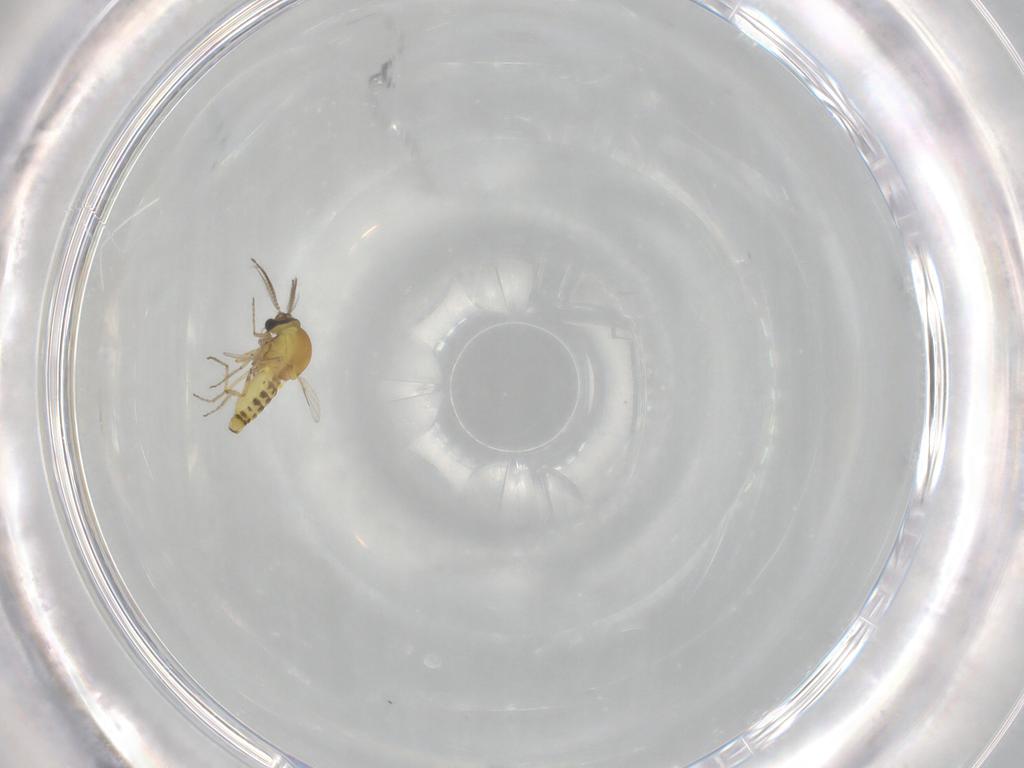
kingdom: Animalia
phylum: Arthropoda
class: Insecta
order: Diptera
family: Ceratopogonidae
